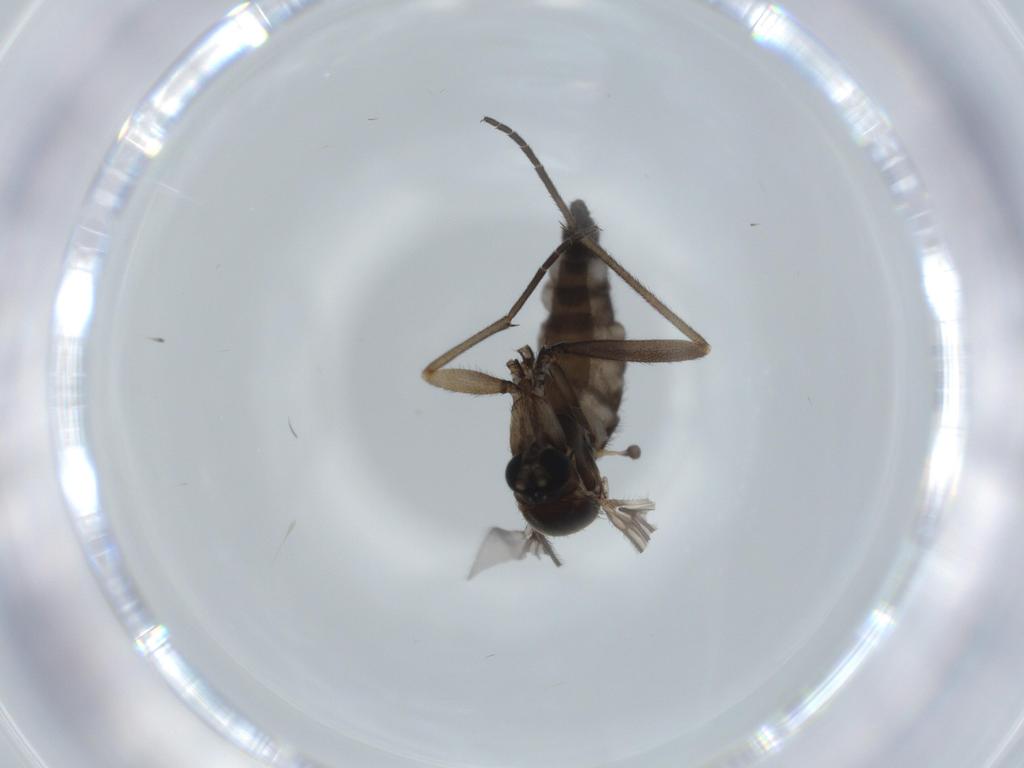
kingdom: Animalia
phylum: Arthropoda
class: Insecta
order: Diptera
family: Sciaridae
